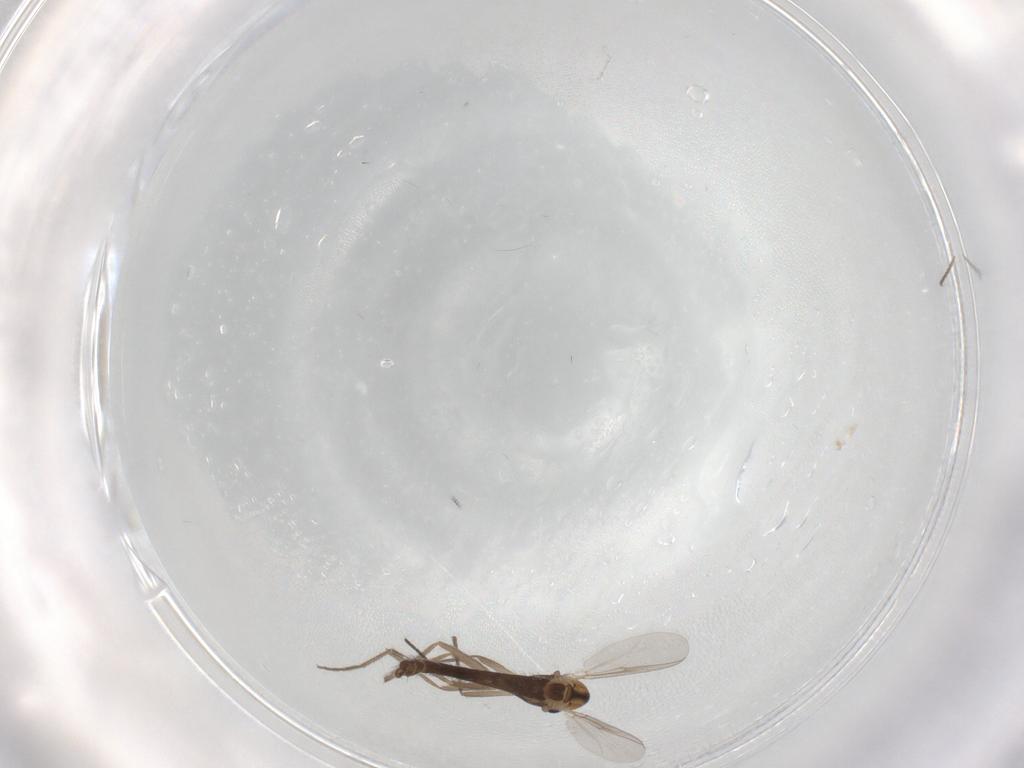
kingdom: Animalia
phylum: Arthropoda
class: Insecta
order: Diptera
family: Chironomidae
